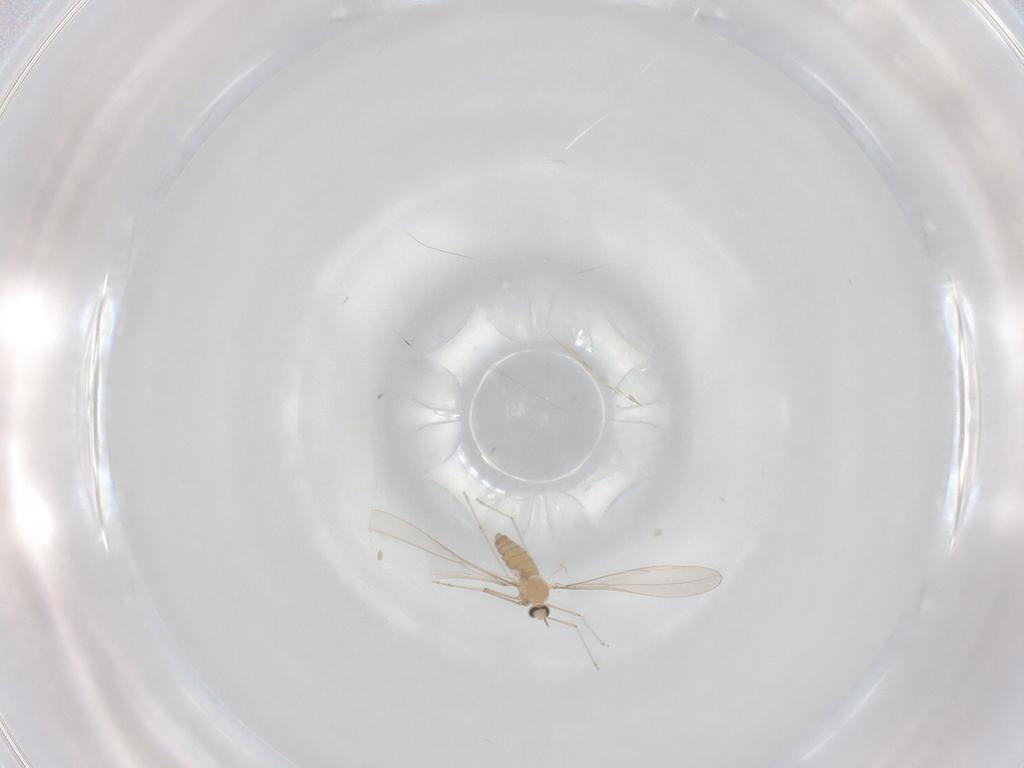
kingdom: Animalia
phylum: Arthropoda
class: Insecta
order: Diptera
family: Cecidomyiidae
